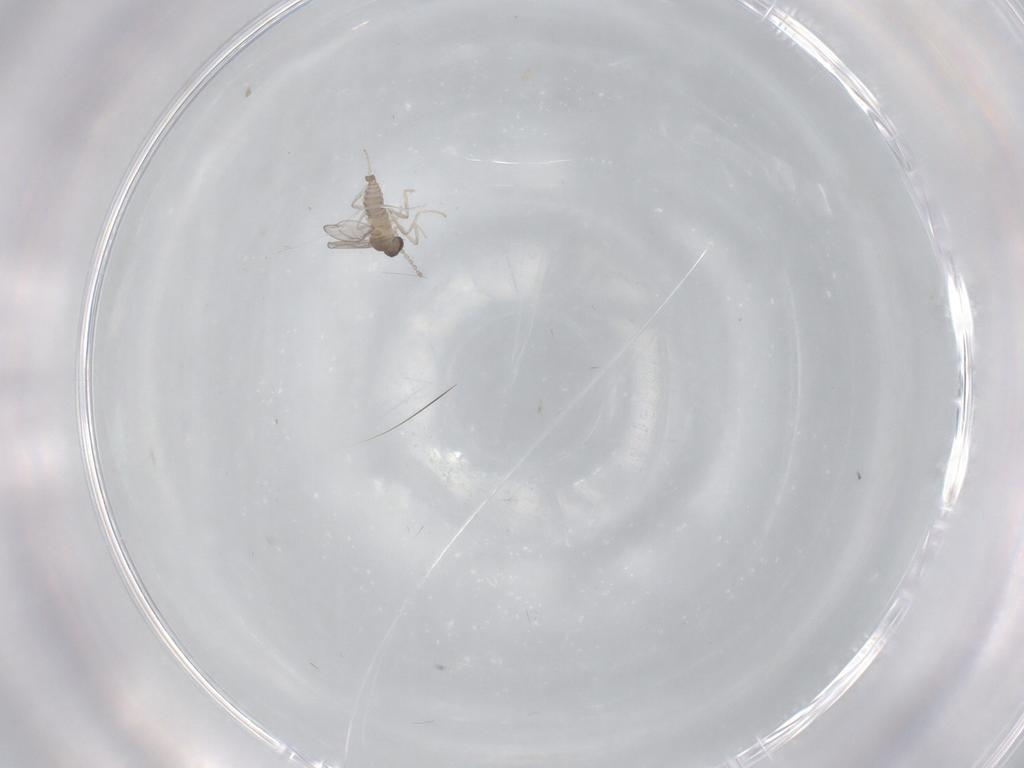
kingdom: Animalia
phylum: Arthropoda
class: Insecta
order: Diptera
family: Cecidomyiidae
